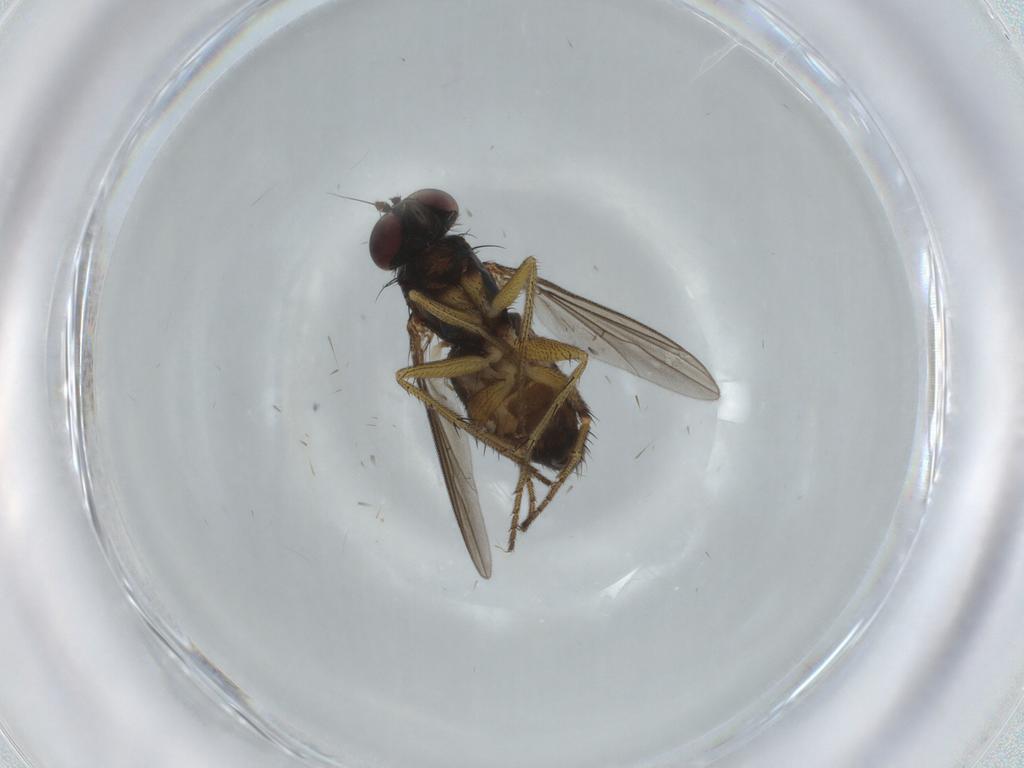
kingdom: Animalia
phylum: Arthropoda
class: Insecta
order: Diptera
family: Dolichopodidae
